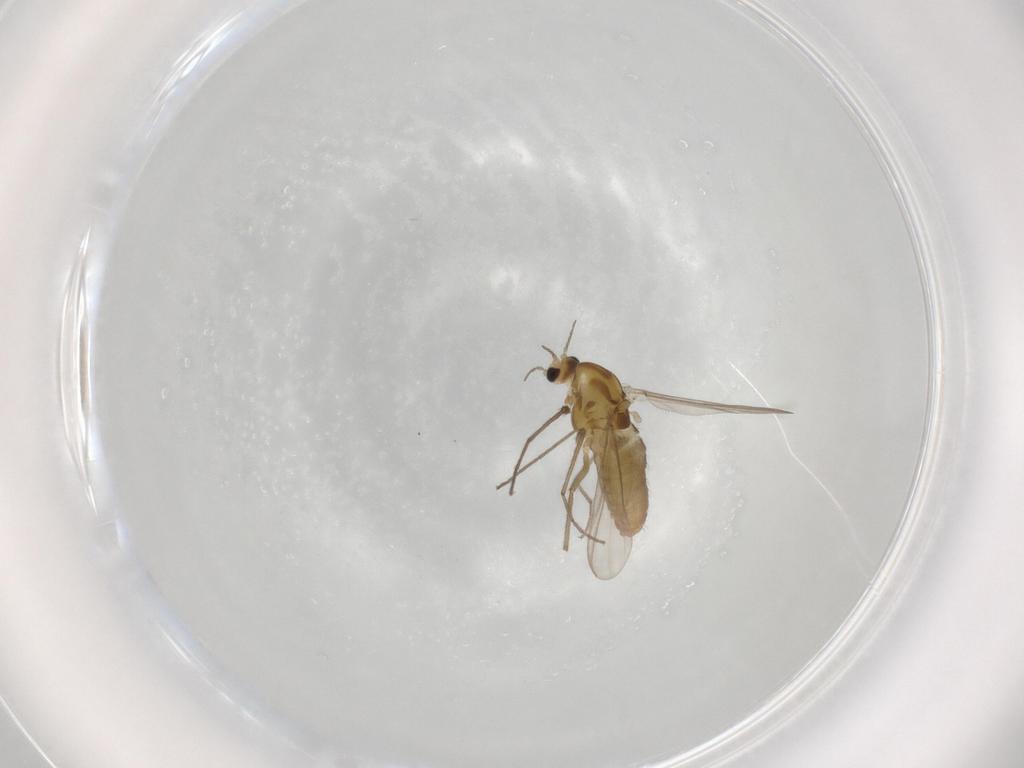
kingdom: Animalia
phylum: Arthropoda
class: Insecta
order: Diptera
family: Chironomidae
